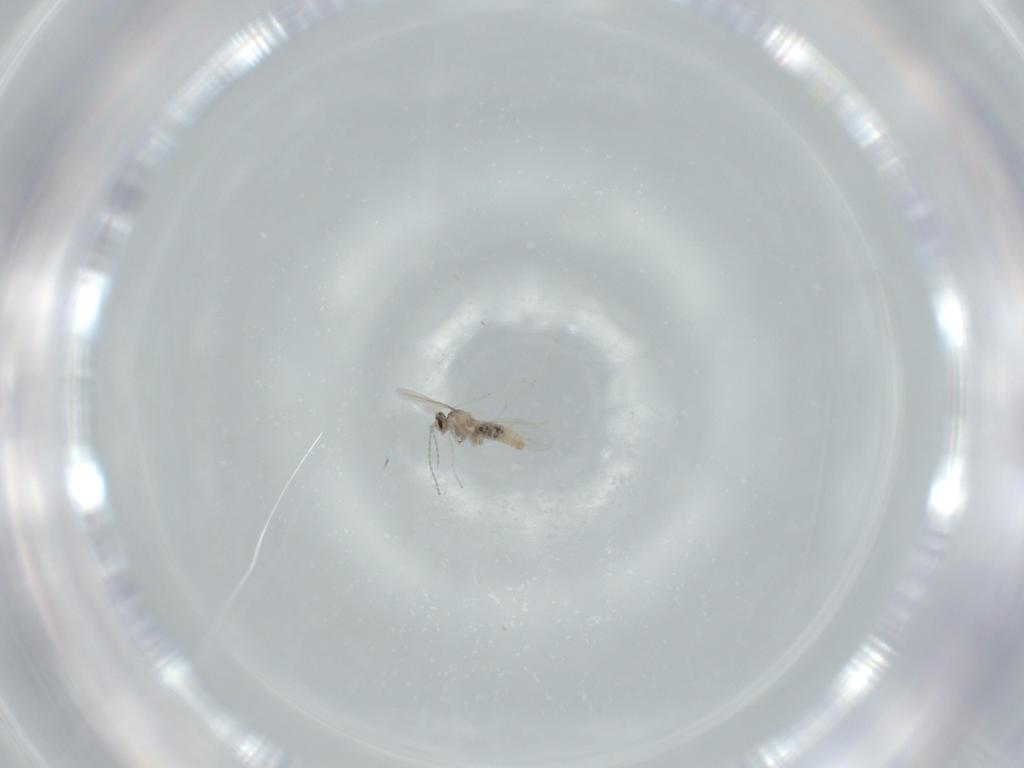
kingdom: Animalia
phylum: Arthropoda
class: Insecta
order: Diptera
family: Cecidomyiidae
